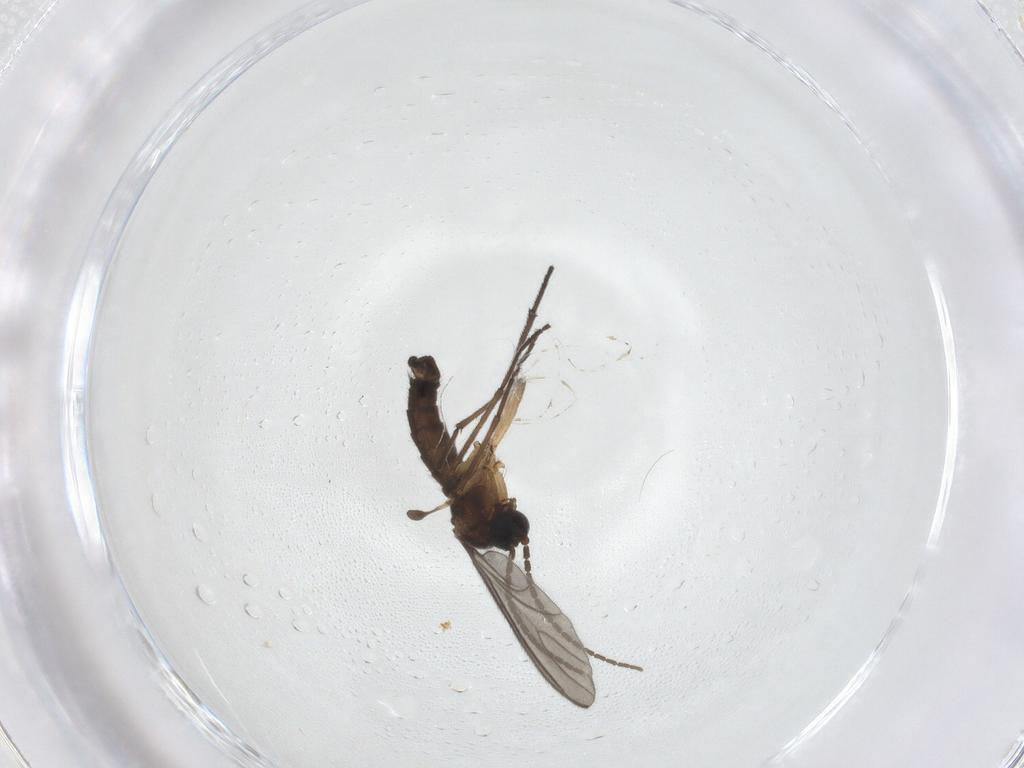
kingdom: Animalia
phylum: Arthropoda
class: Insecta
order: Diptera
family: Sciaridae
